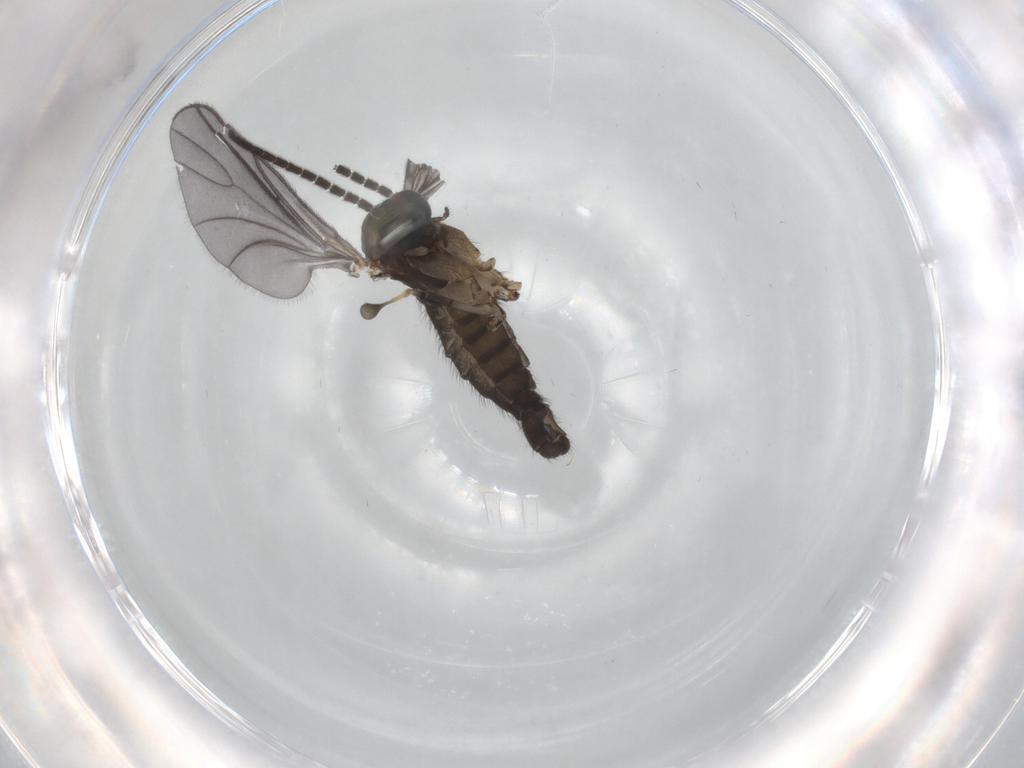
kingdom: Animalia
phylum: Arthropoda
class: Insecta
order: Diptera
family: Sciaridae
